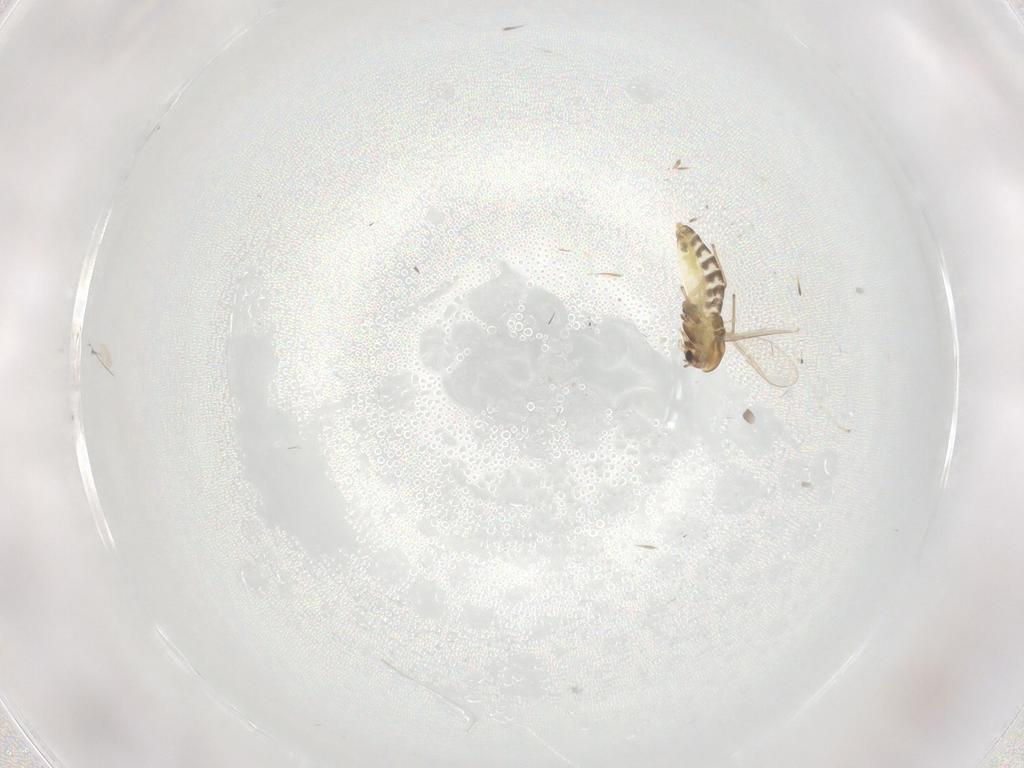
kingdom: Animalia
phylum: Arthropoda
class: Insecta
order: Diptera
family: Chironomidae
